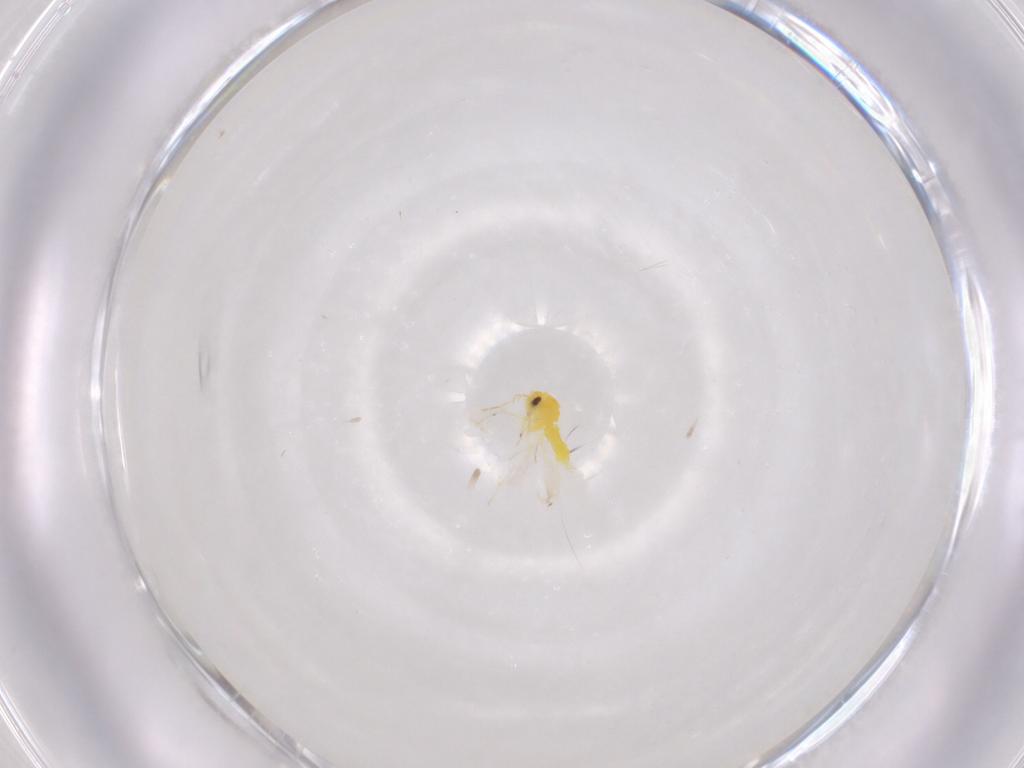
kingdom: Animalia
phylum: Arthropoda
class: Insecta
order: Hemiptera
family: Aleyrodidae
